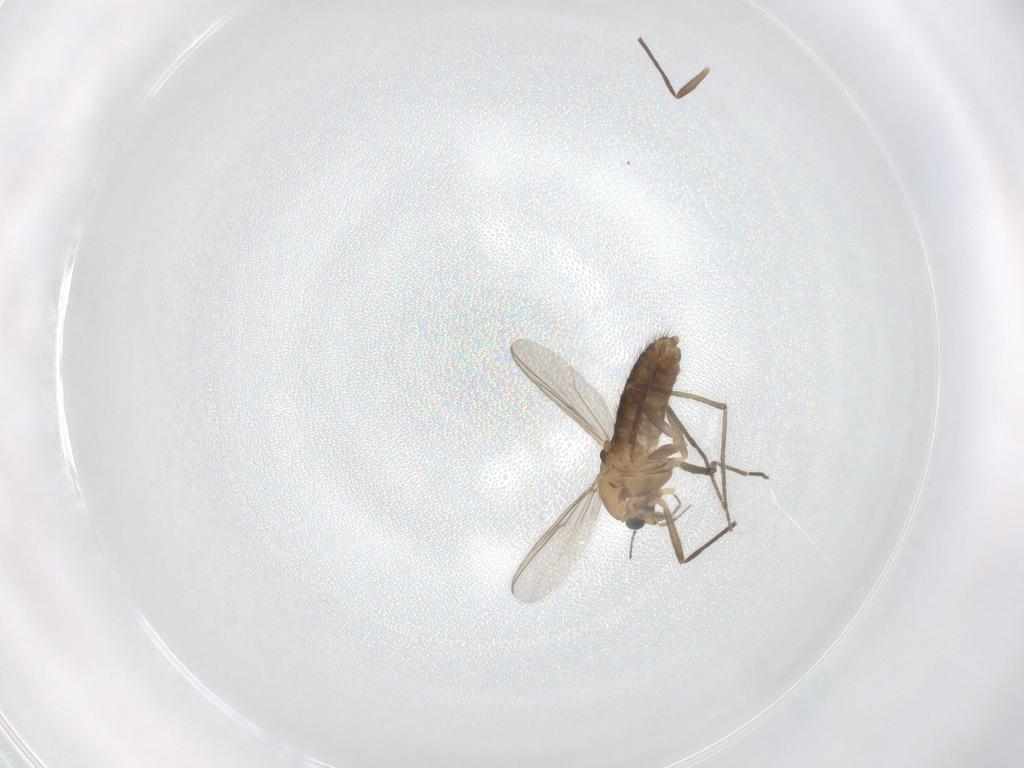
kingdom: Animalia
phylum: Arthropoda
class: Insecta
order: Diptera
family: Chironomidae
